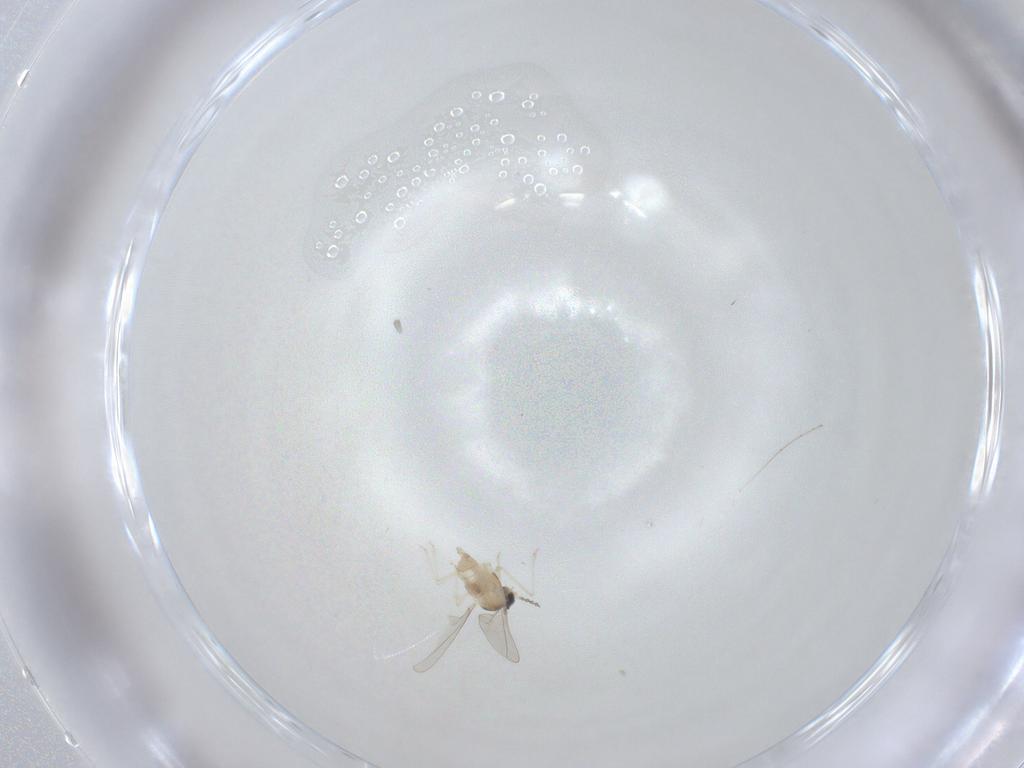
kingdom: Animalia
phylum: Arthropoda
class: Insecta
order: Diptera
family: Cecidomyiidae
